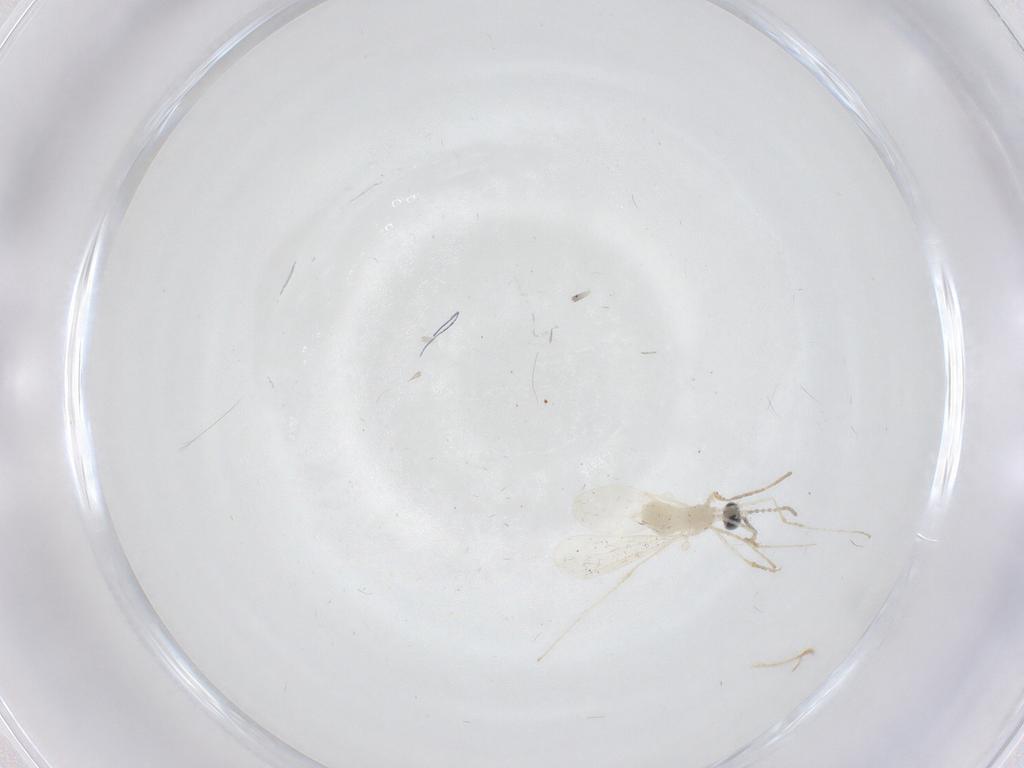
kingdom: Animalia
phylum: Arthropoda
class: Insecta
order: Diptera
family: Cecidomyiidae
